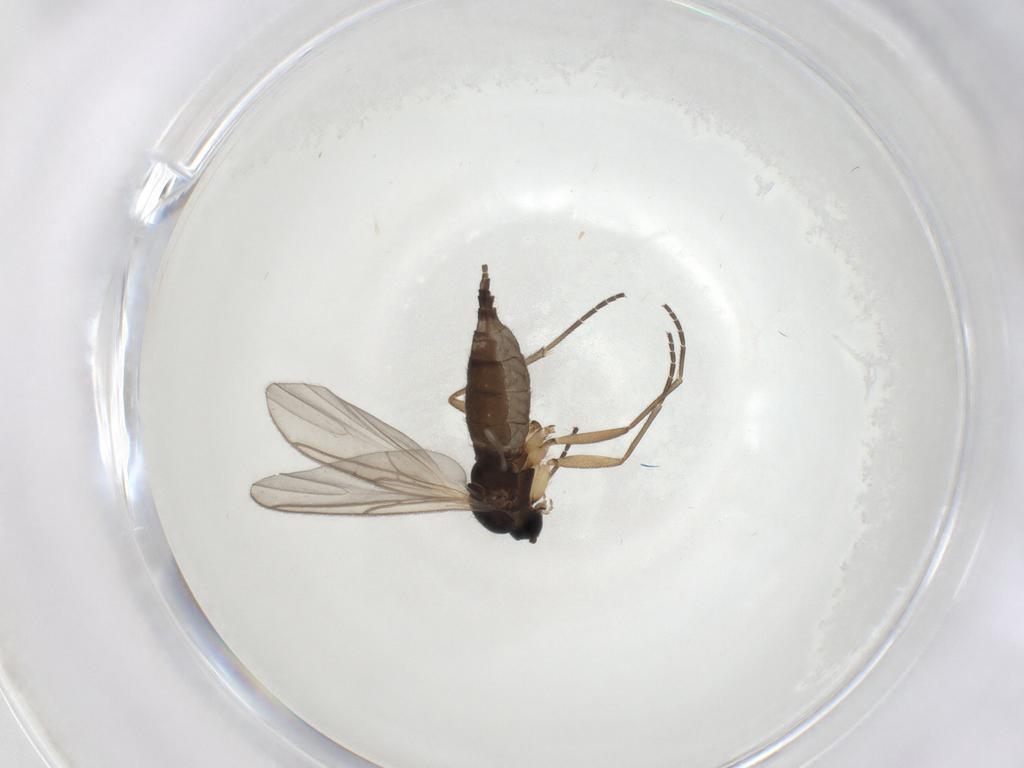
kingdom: Animalia
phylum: Arthropoda
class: Insecta
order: Diptera
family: Sciaridae
